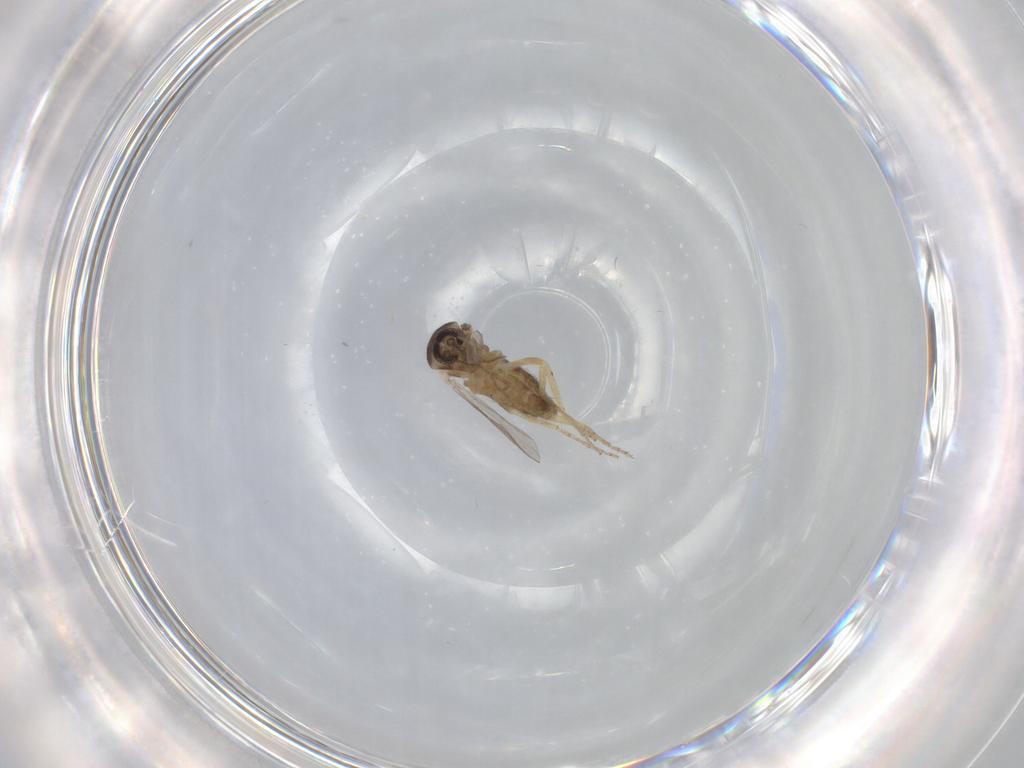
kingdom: Animalia
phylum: Arthropoda
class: Insecta
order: Diptera
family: Ceratopogonidae
